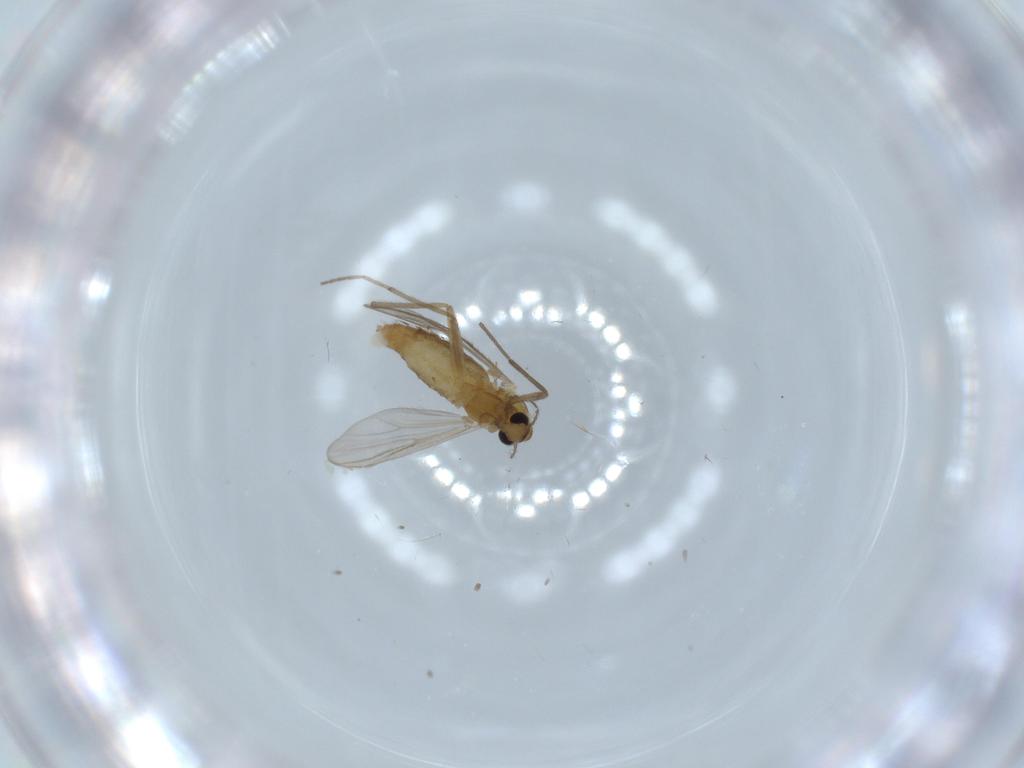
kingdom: Animalia
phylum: Arthropoda
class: Insecta
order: Diptera
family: Chironomidae
